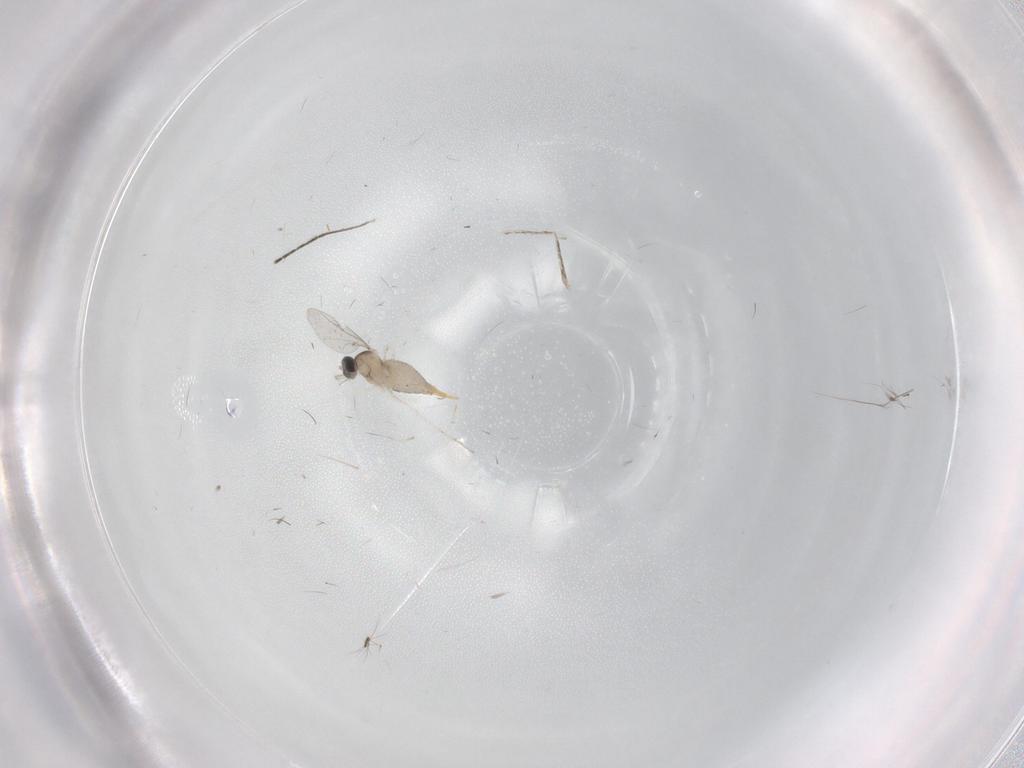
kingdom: Animalia
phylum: Arthropoda
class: Insecta
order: Diptera
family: Cecidomyiidae
